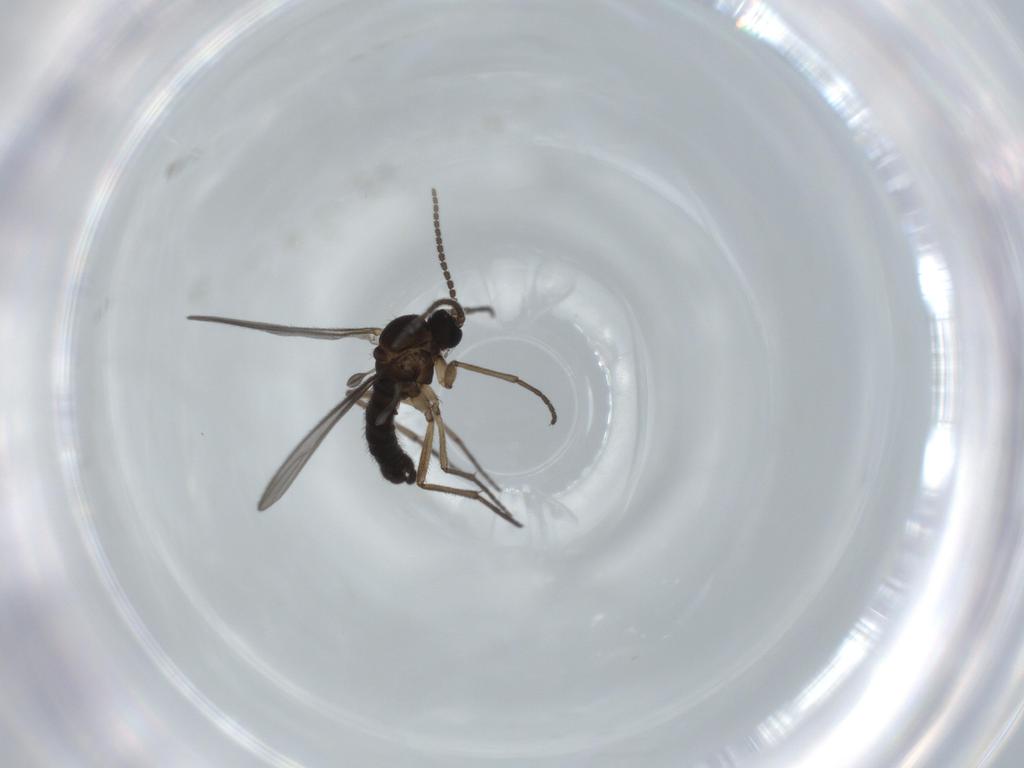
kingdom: Animalia
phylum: Arthropoda
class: Insecta
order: Diptera
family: Sciaridae
